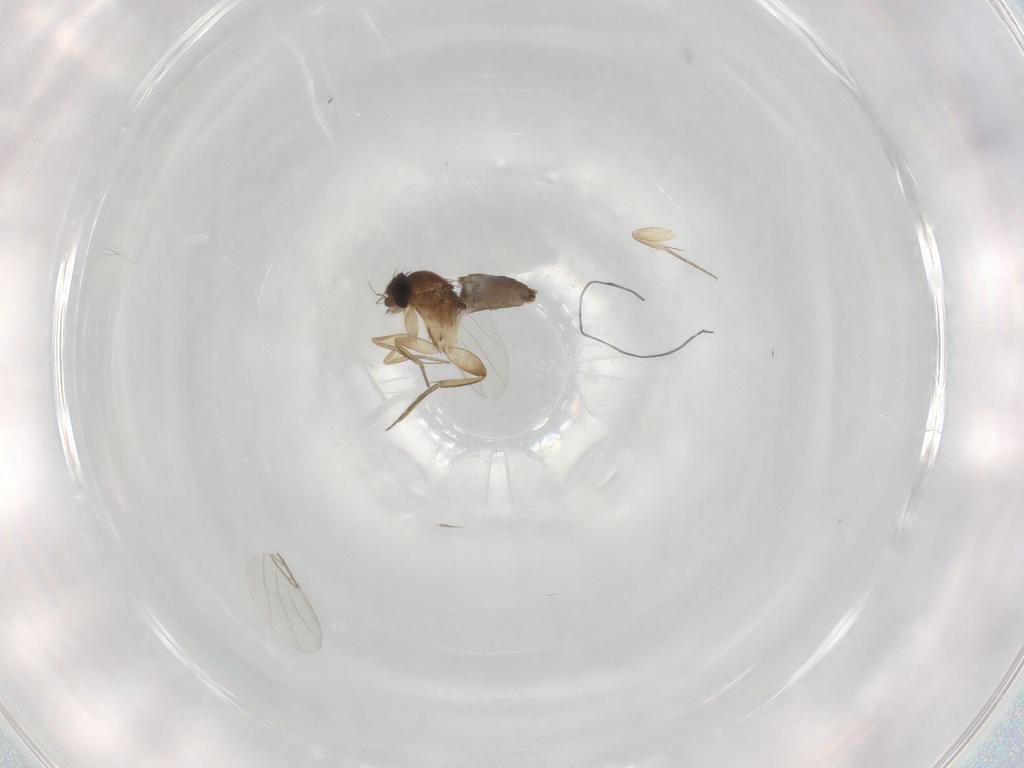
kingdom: Animalia
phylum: Arthropoda
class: Insecta
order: Diptera
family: Phoridae
